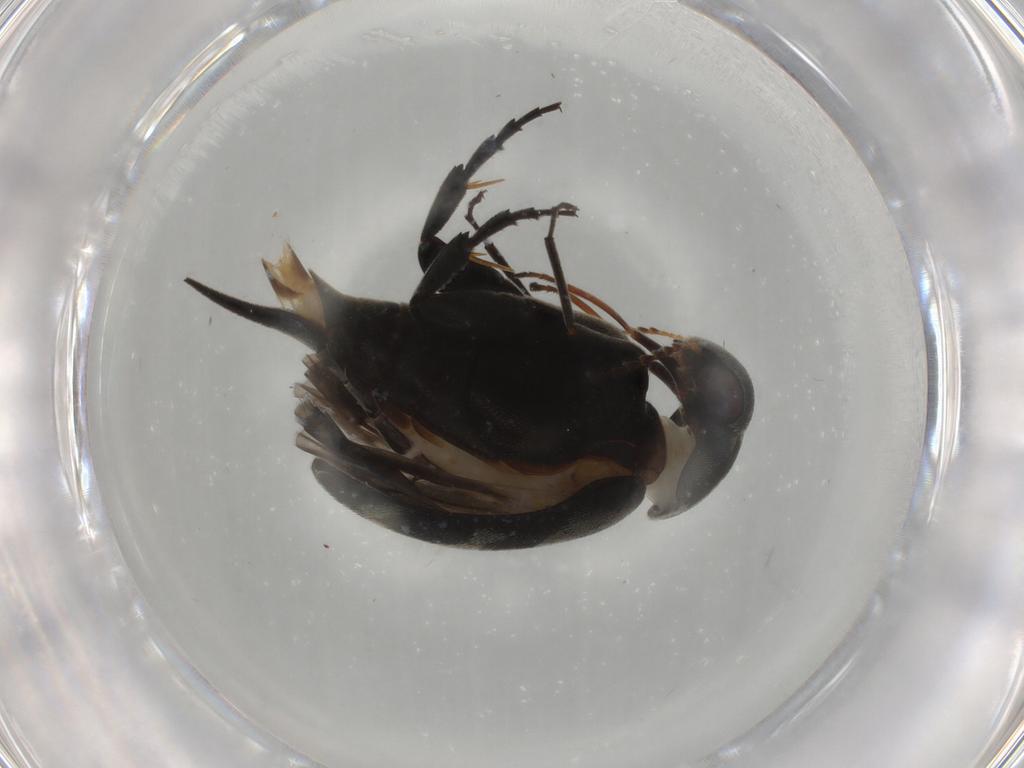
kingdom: Animalia
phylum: Arthropoda
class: Insecta
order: Coleoptera
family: Mordellidae
